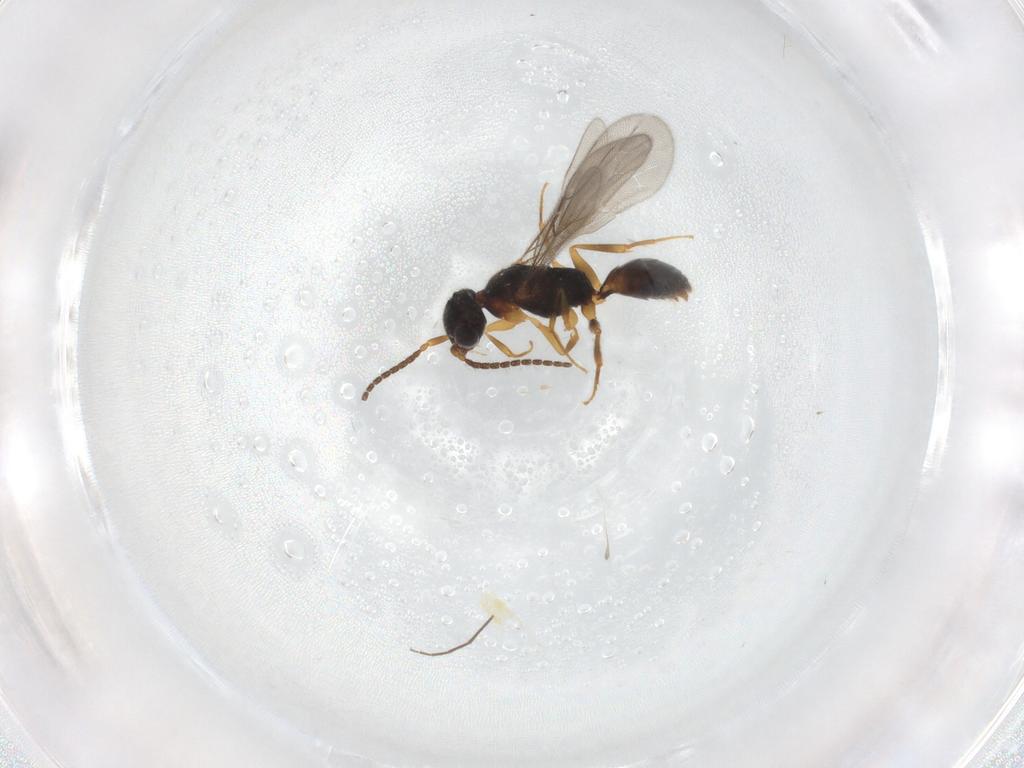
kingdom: Animalia
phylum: Arthropoda
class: Insecta
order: Hymenoptera
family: Bethylidae
